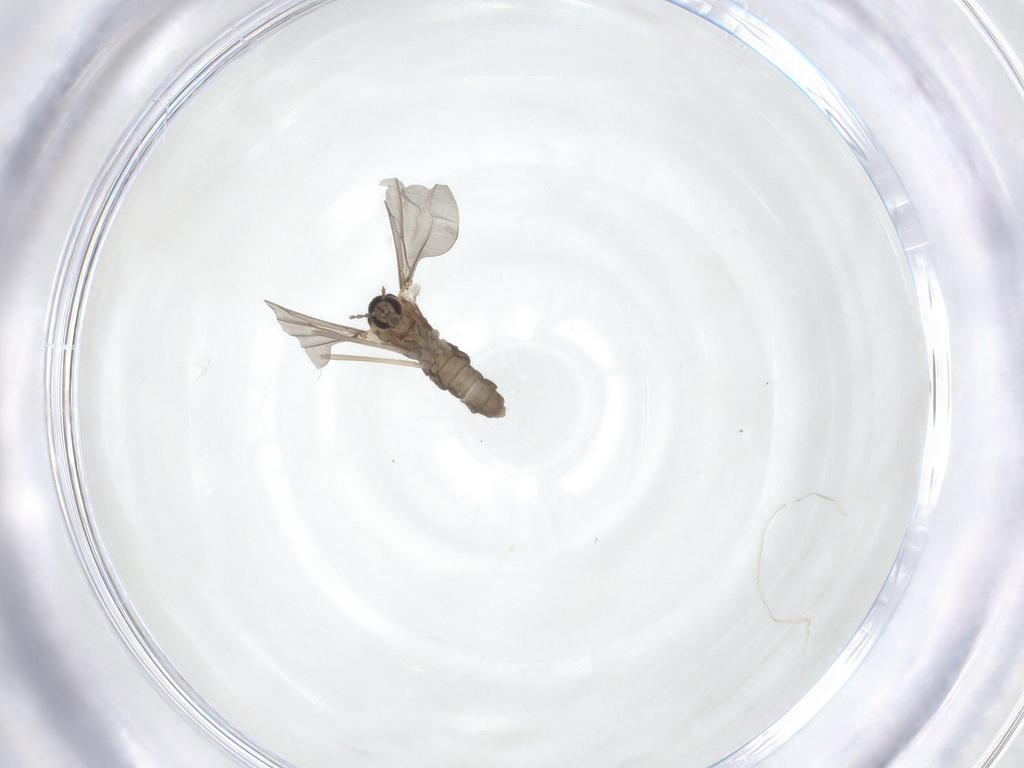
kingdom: Animalia
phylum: Arthropoda
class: Insecta
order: Diptera
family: Cecidomyiidae
